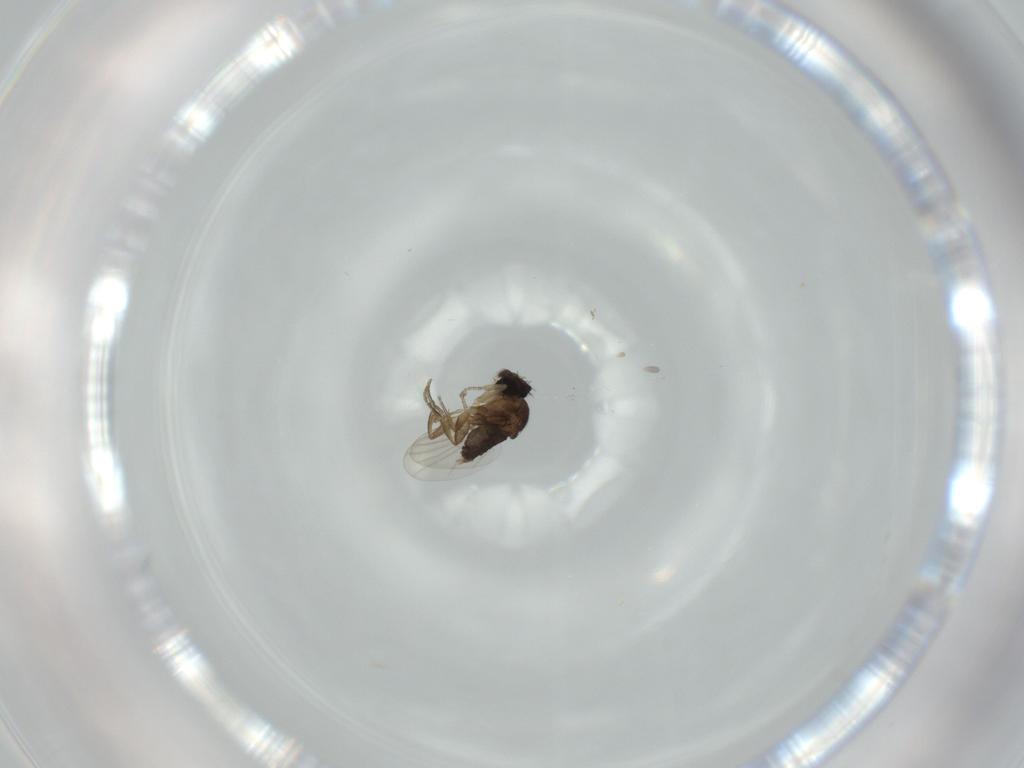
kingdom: Animalia
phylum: Arthropoda
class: Insecta
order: Diptera
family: Phoridae
